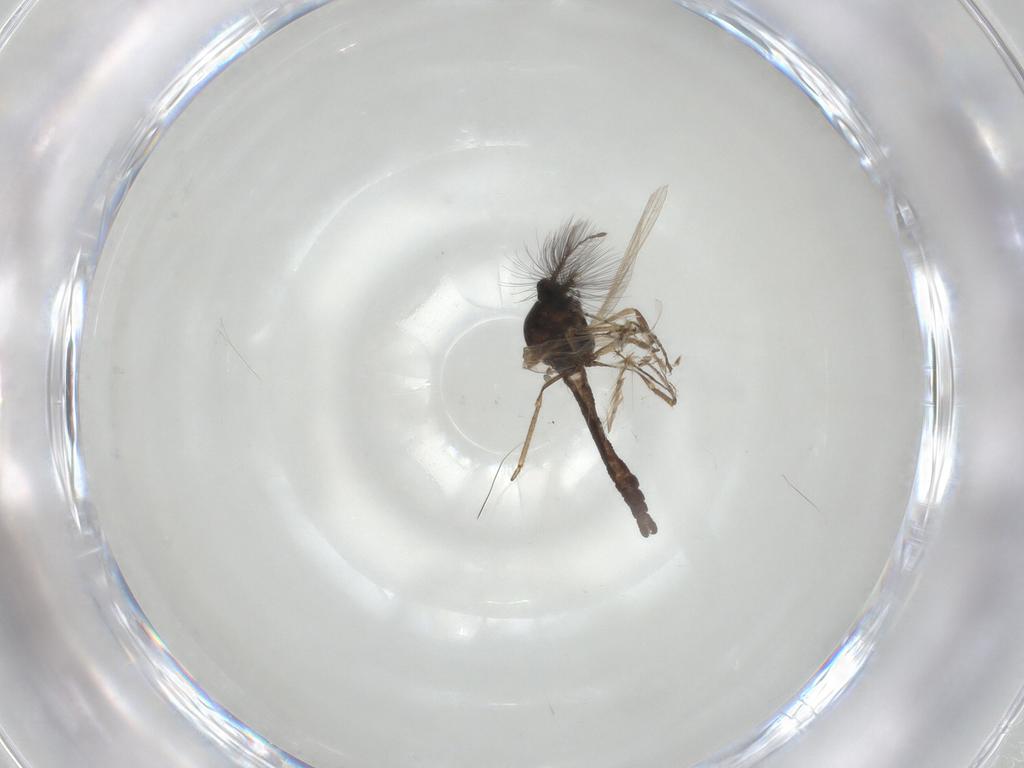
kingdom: Animalia
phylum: Arthropoda
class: Insecta
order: Diptera
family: Ceratopogonidae
